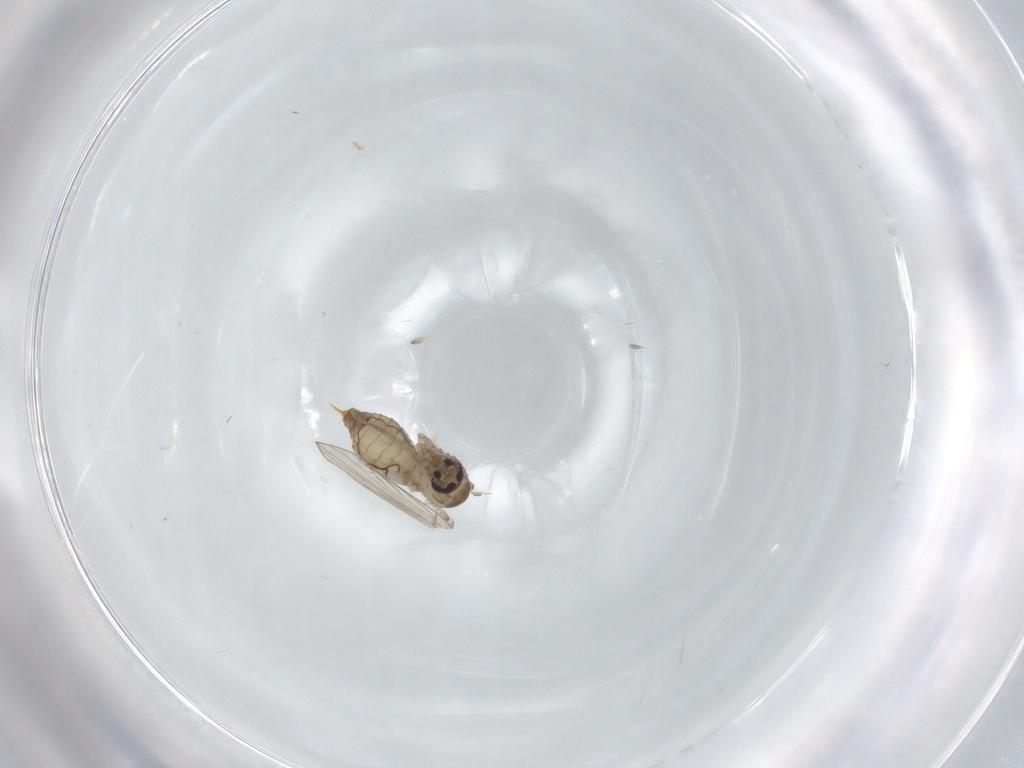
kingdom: Animalia
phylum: Arthropoda
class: Insecta
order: Diptera
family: Psychodidae
